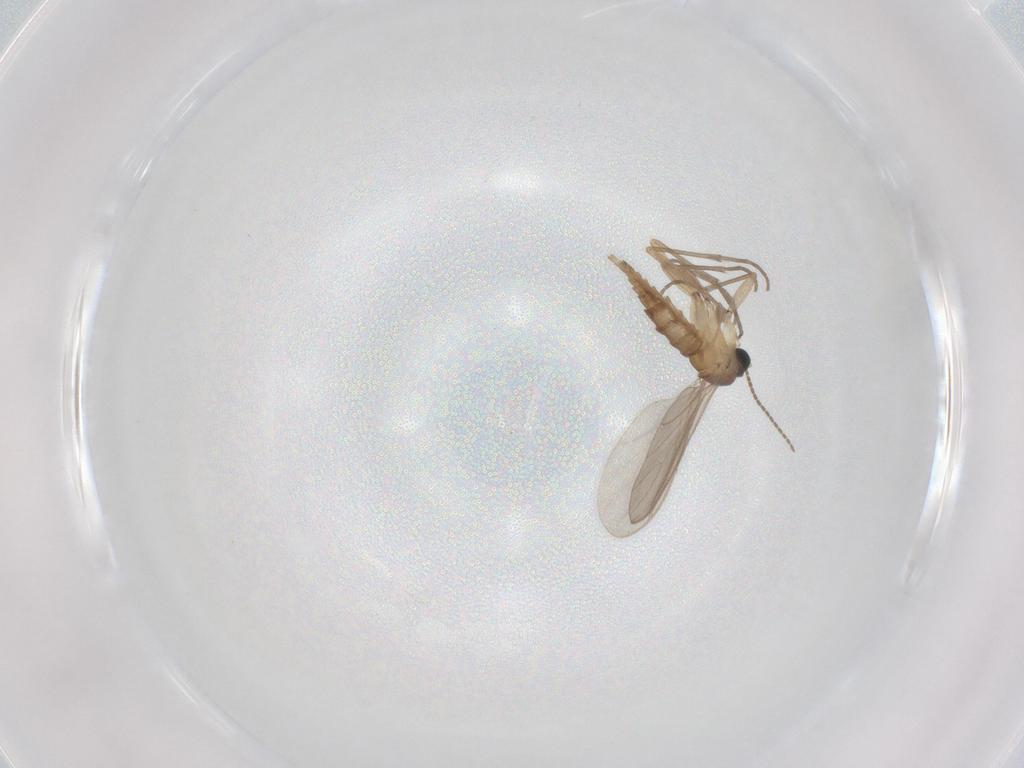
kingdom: Animalia
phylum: Arthropoda
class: Insecta
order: Diptera
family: Sciaridae
